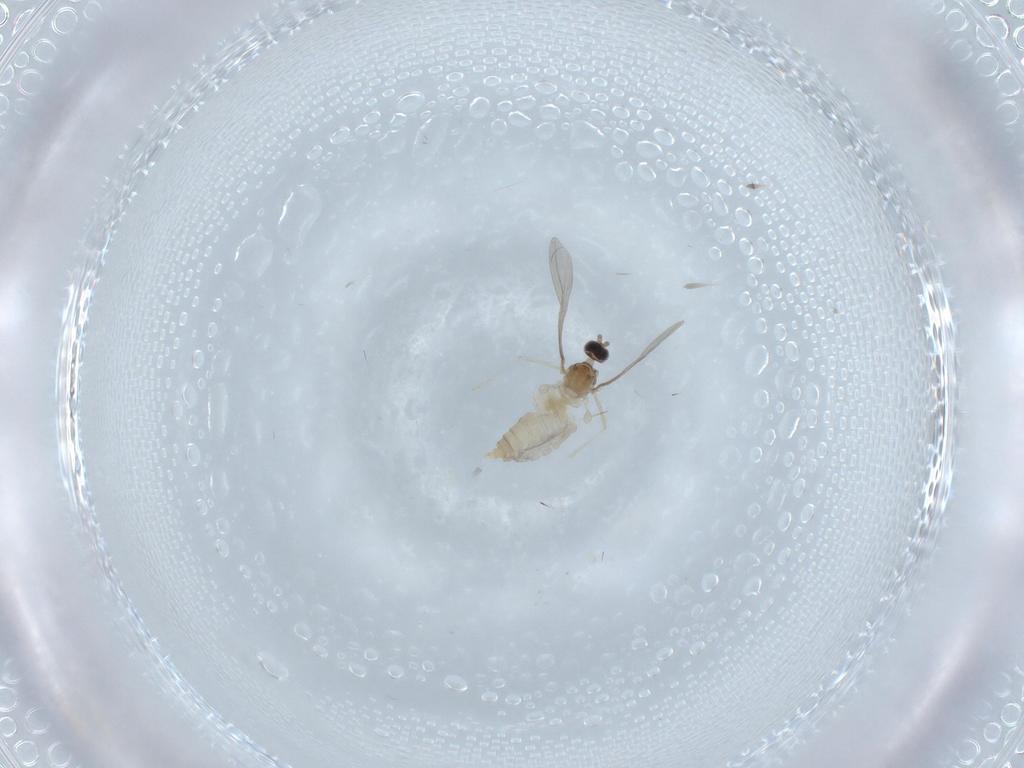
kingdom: Animalia
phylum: Arthropoda
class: Insecta
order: Diptera
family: Cecidomyiidae
